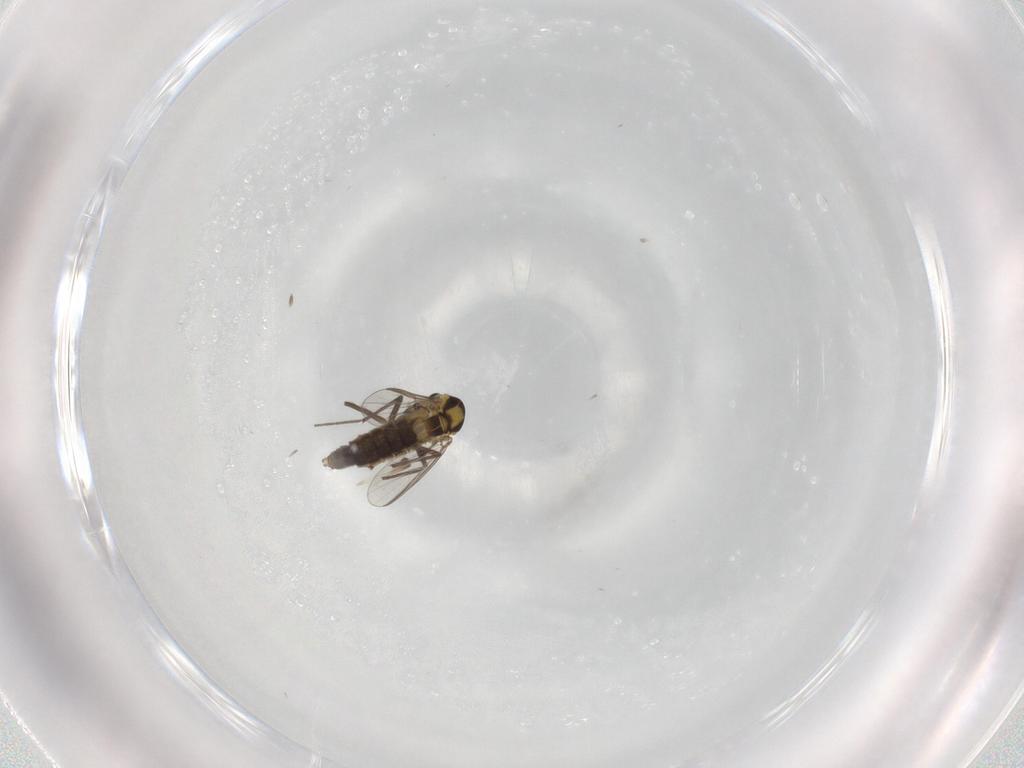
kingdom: Animalia
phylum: Arthropoda
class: Insecta
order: Diptera
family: Chironomidae
